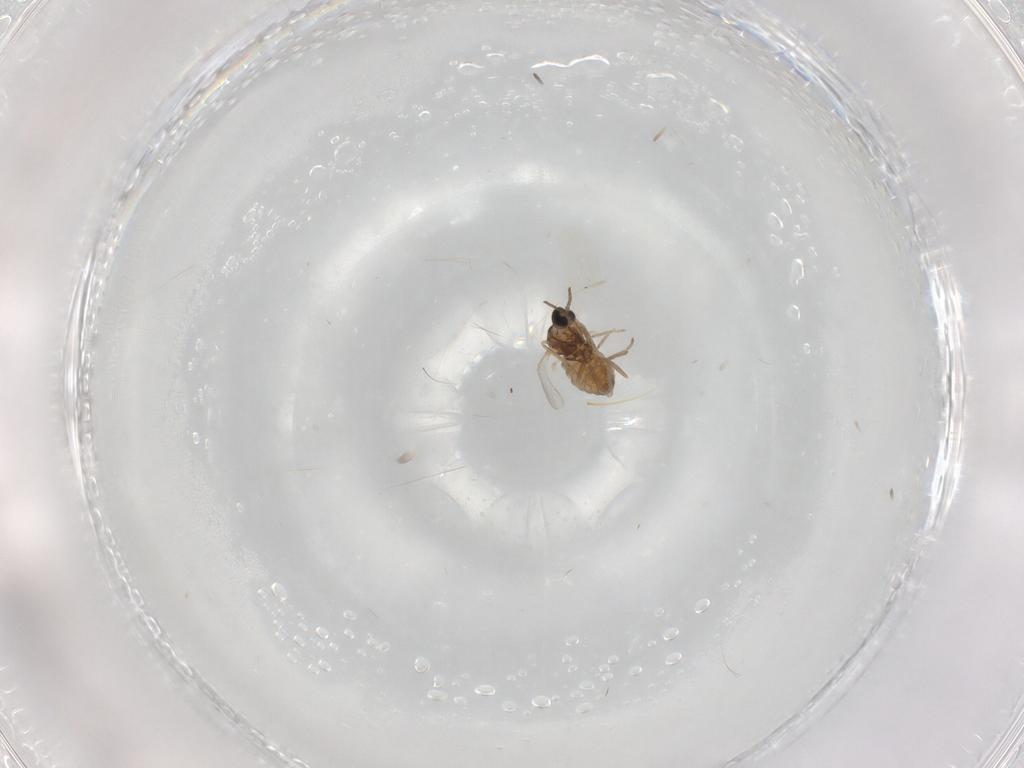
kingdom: Animalia
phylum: Arthropoda
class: Insecta
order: Diptera
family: Cecidomyiidae
